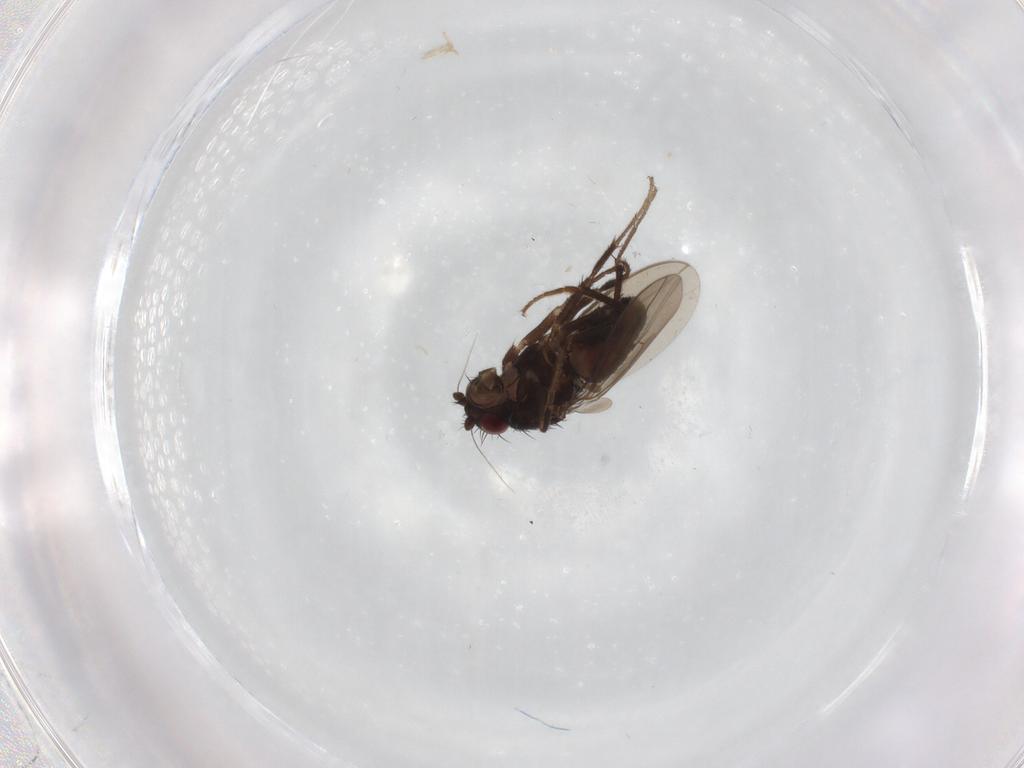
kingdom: Animalia
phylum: Arthropoda
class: Insecta
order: Diptera
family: Sphaeroceridae
